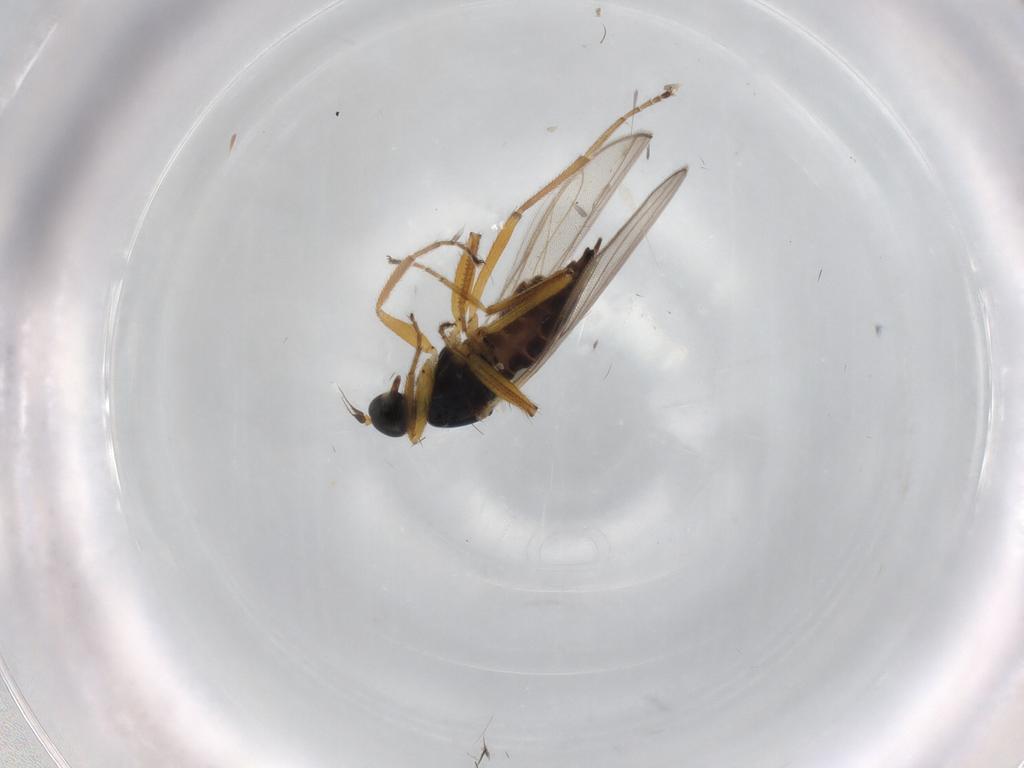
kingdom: Animalia
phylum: Arthropoda
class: Insecta
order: Diptera
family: Hybotidae
